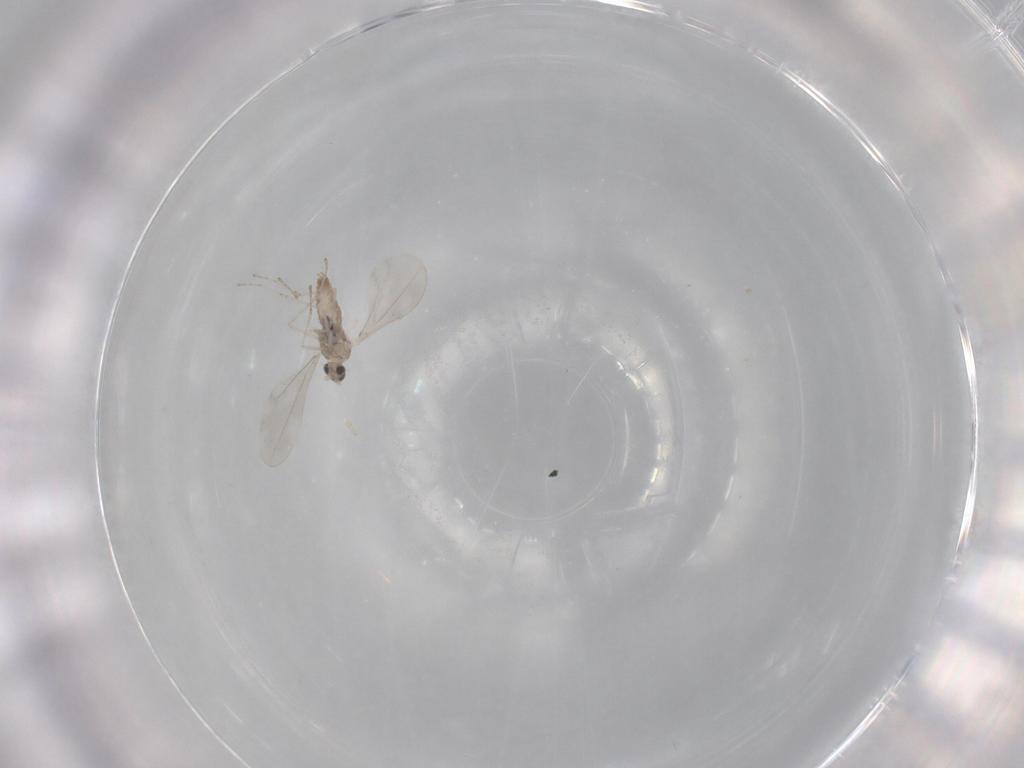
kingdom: Animalia
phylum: Arthropoda
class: Insecta
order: Diptera
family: Cecidomyiidae
